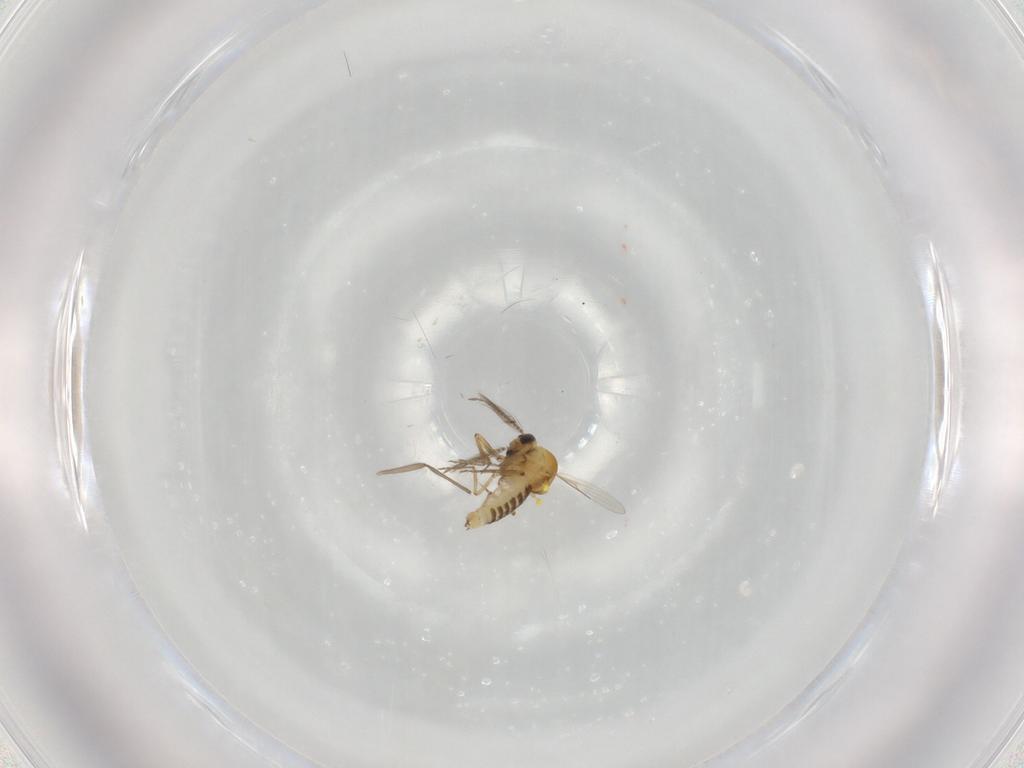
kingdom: Animalia
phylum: Arthropoda
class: Insecta
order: Diptera
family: Chironomidae
